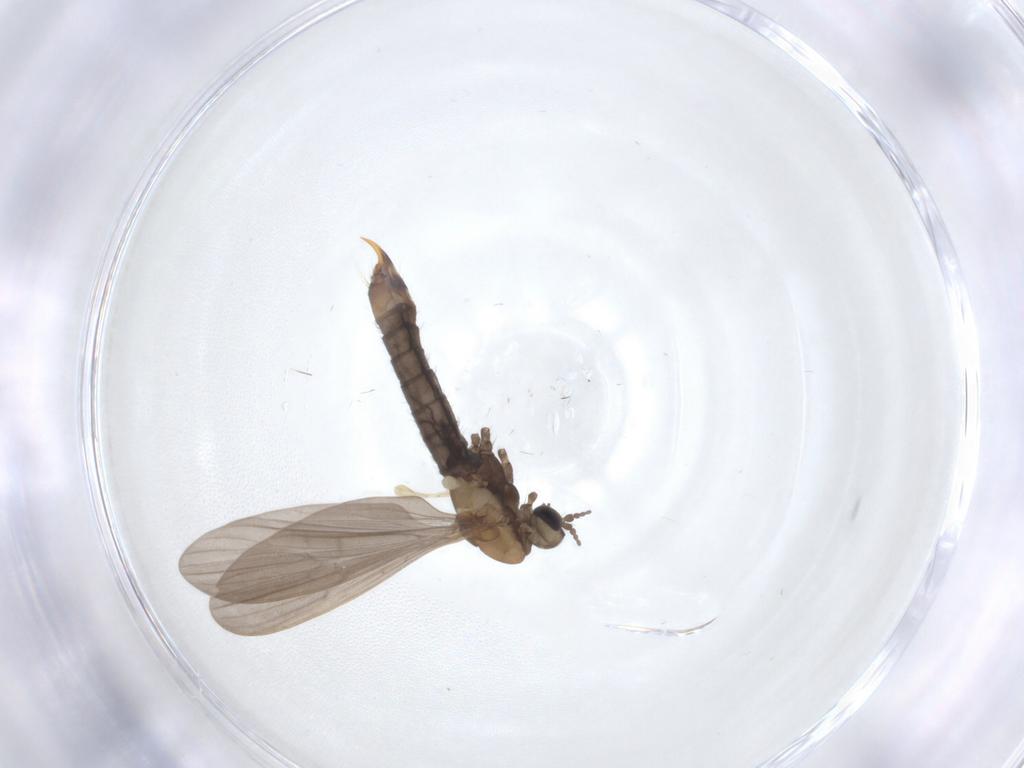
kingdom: Animalia
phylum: Arthropoda
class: Insecta
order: Diptera
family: Limoniidae
